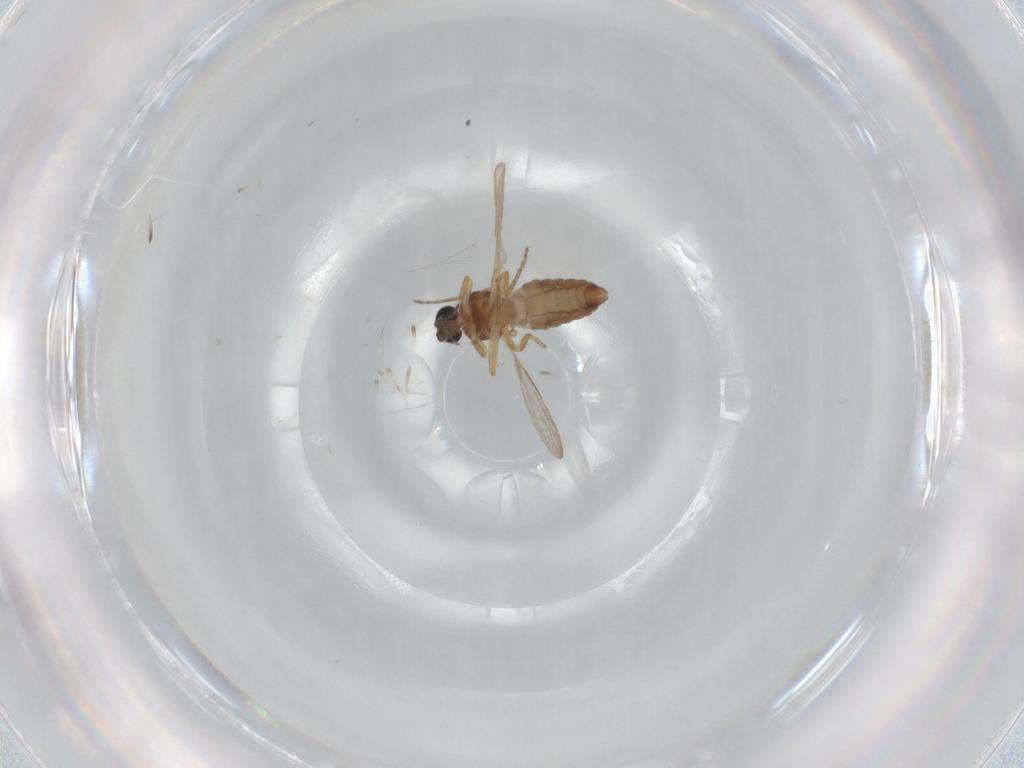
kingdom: Animalia
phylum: Arthropoda
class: Insecta
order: Diptera
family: Ceratopogonidae
